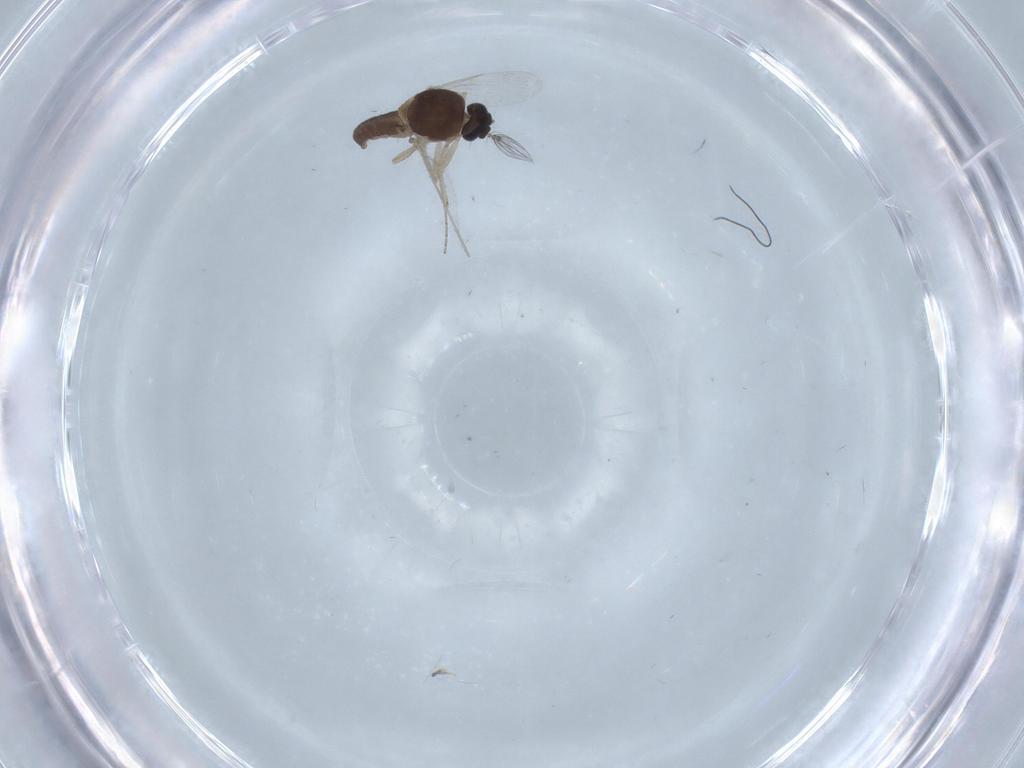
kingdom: Animalia
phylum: Arthropoda
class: Insecta
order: Diptera
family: Ceratopogonidae
